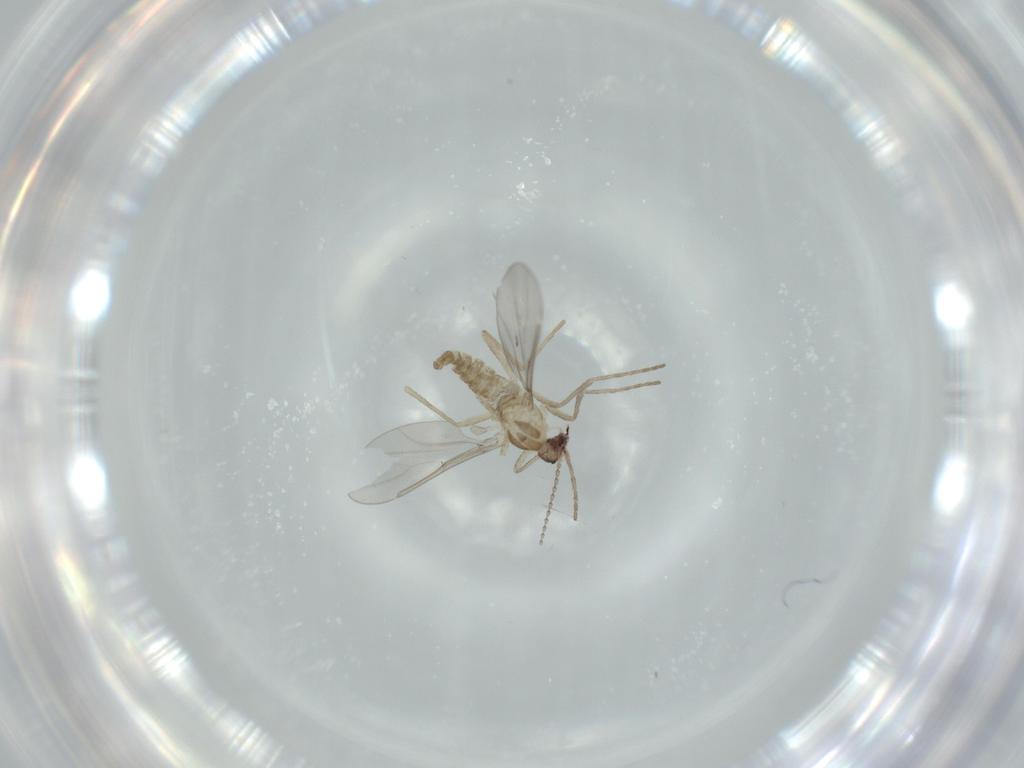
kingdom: Animalia
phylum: Arthropoda
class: Insecta
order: Diptera
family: Cecidomyiidae
